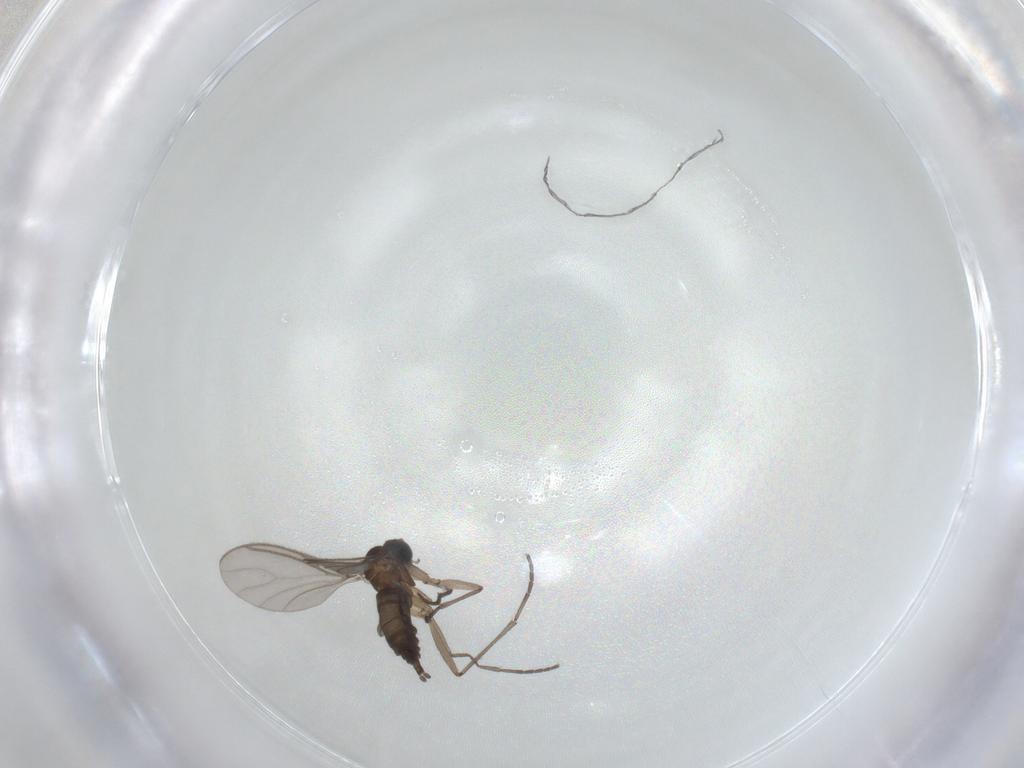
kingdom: Animalia
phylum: Arthropoda
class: Insecta
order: Diptera
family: Sciaridae
